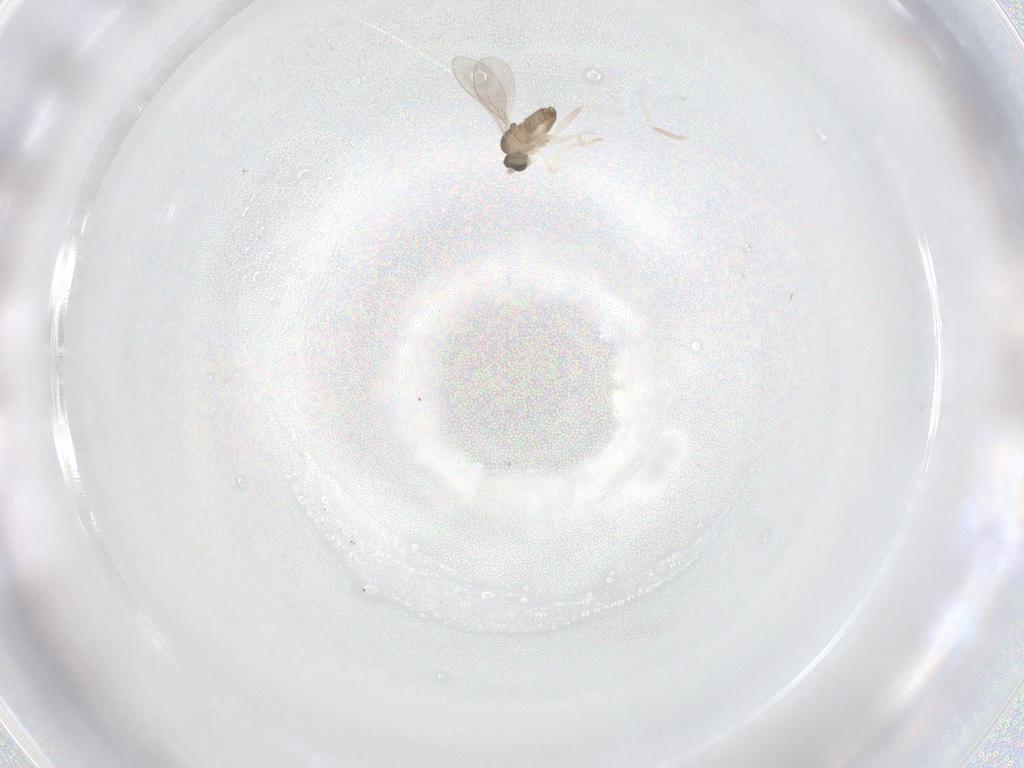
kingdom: Animalia
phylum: Arthropoda
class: Insecta
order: Diptera
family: Cecidomyiidae
